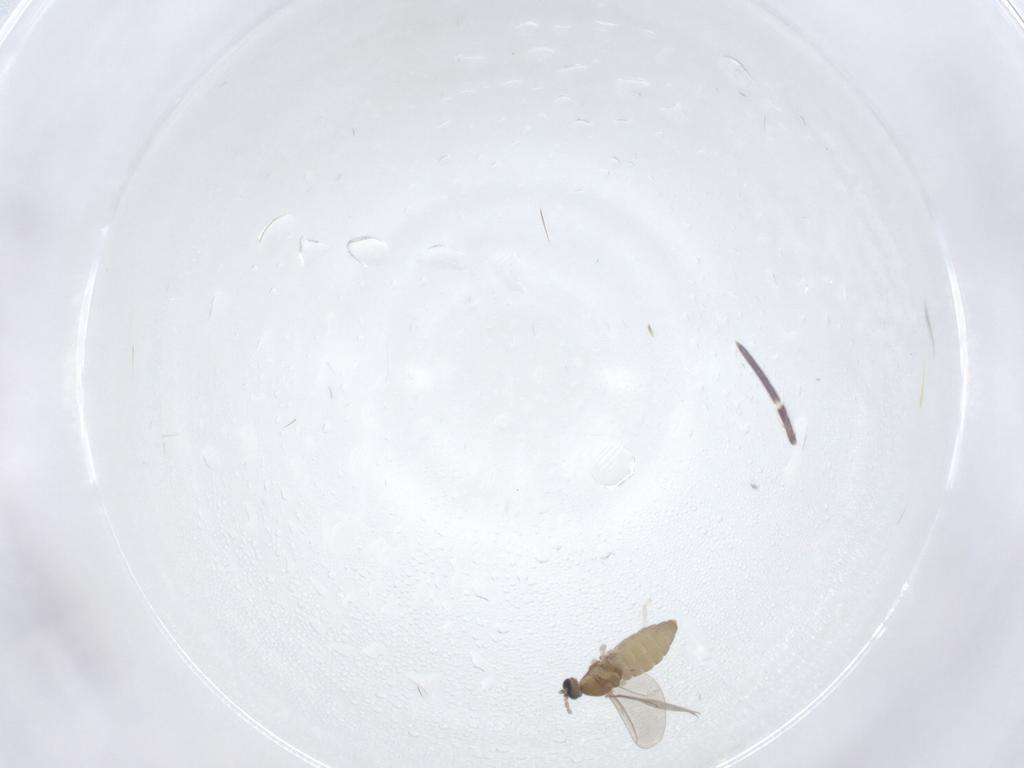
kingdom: Animalia
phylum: Arthropoda
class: Insecta
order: Diptera
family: Cecidomyiidae
